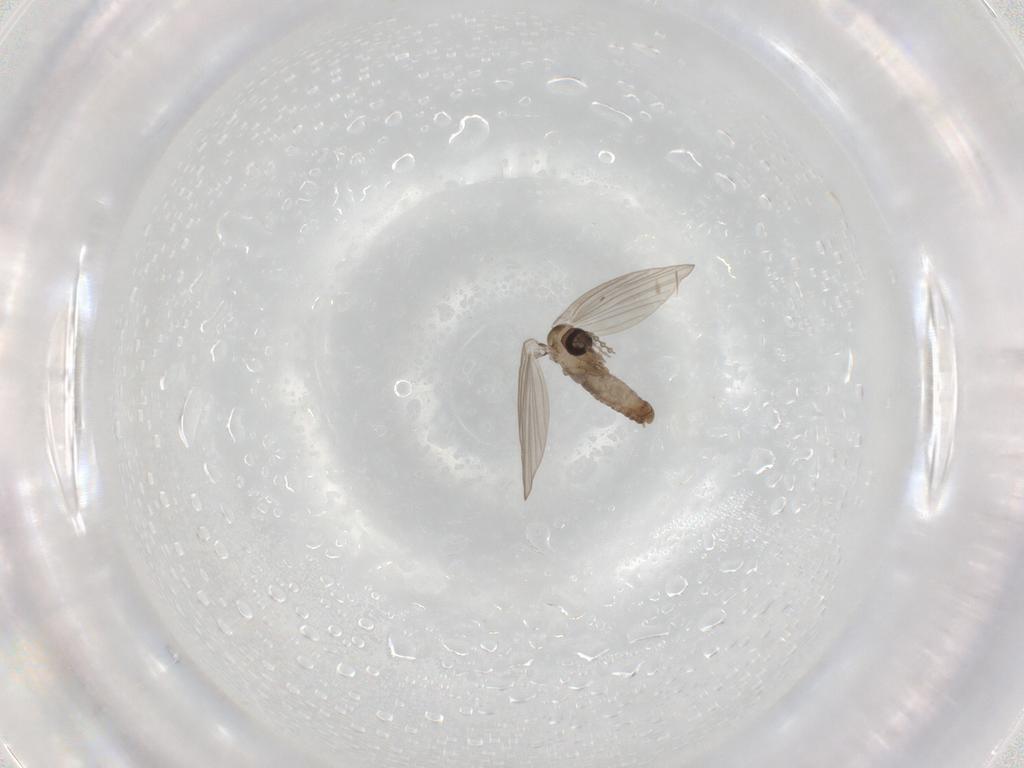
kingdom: Animalia
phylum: Arthropoda
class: Insecta
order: Diptera
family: Psychodidae
